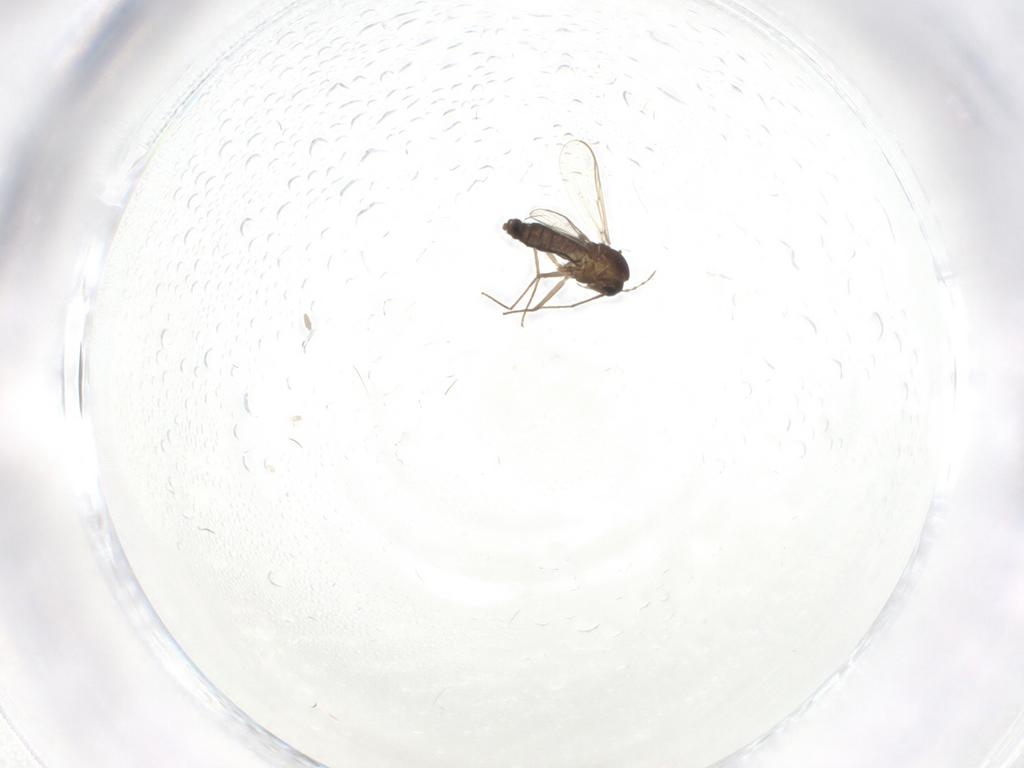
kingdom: Animalia
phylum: Arthropoda
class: Insecta
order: Diptera
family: Chironomidae
